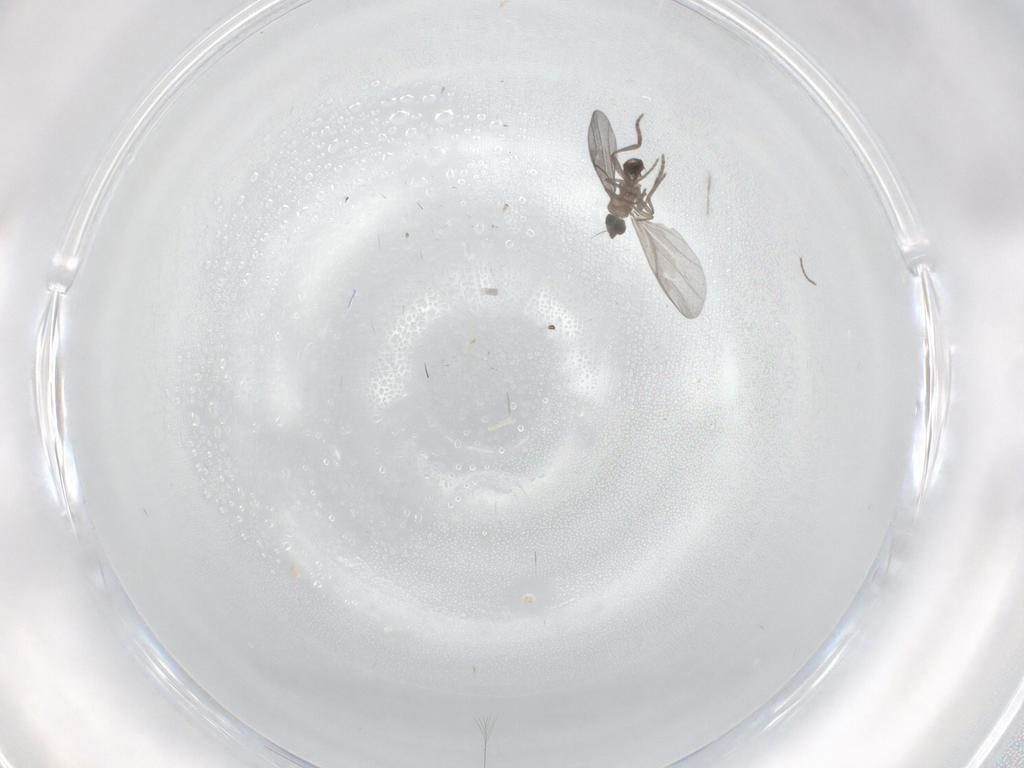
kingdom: Animalia
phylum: Arthropoda
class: Insecta
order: Diptera
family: Phoridae
